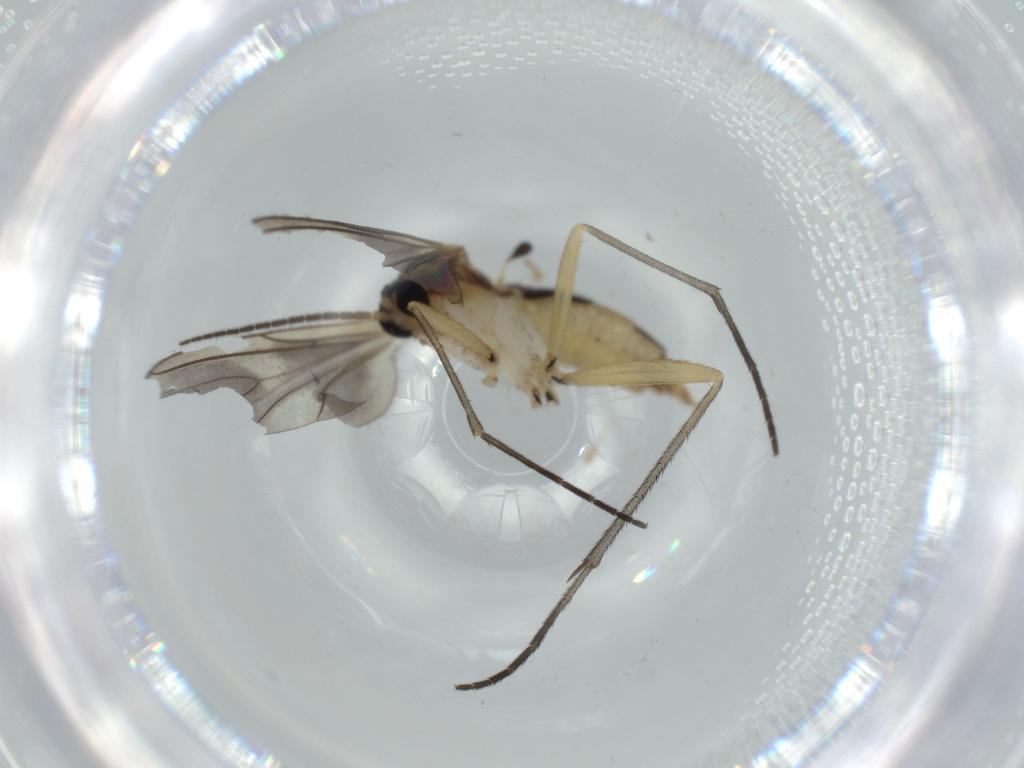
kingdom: Animalia
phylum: Arthropoda
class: Insecta
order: Diptera
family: Sciaridae
